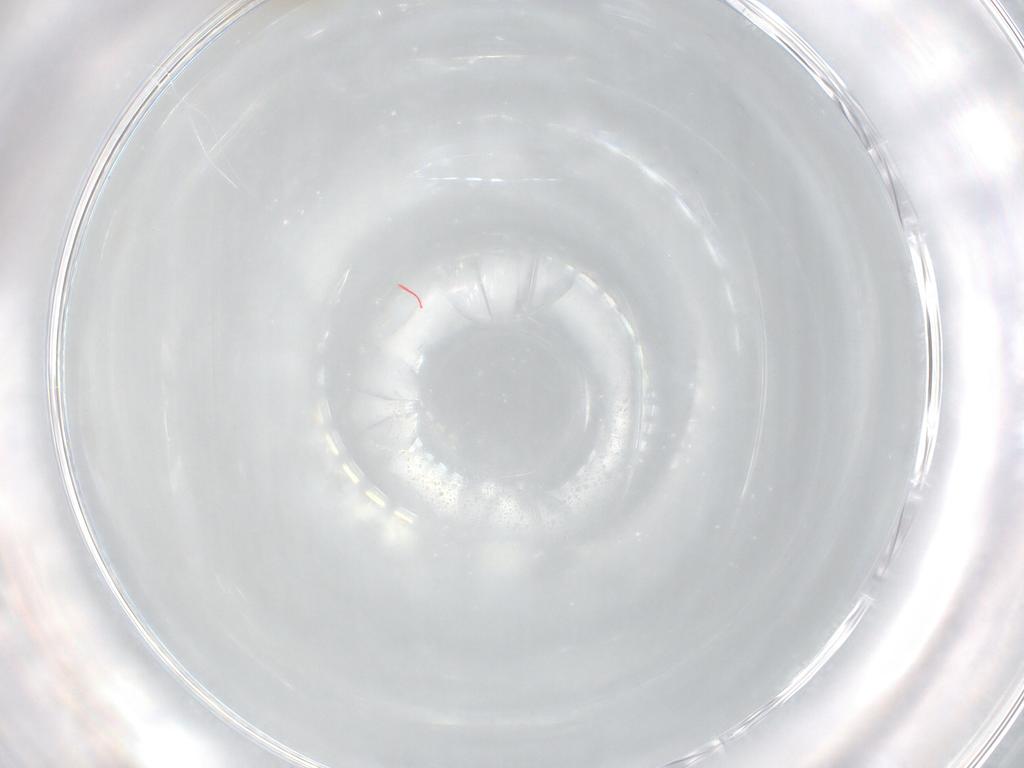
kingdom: Animalia
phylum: Arthropoda
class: Insecta
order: Diptera
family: Cecidomyiidae
